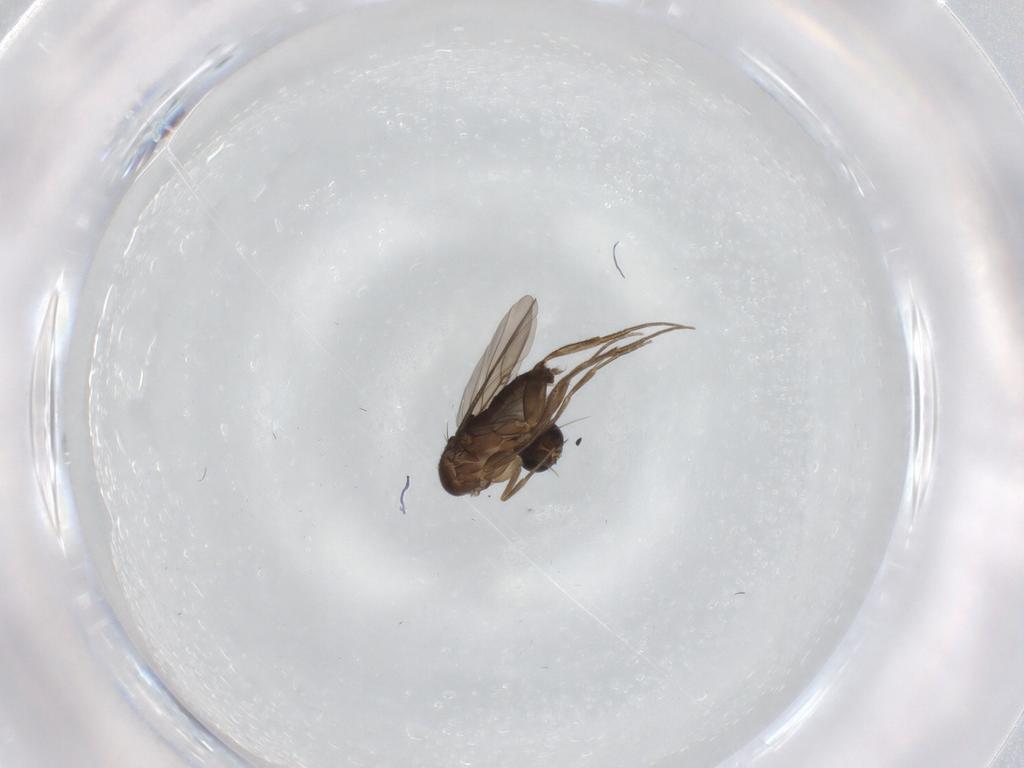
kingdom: Animalia
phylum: Arthropoda
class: Insecta
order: Diptera
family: Phoridae
